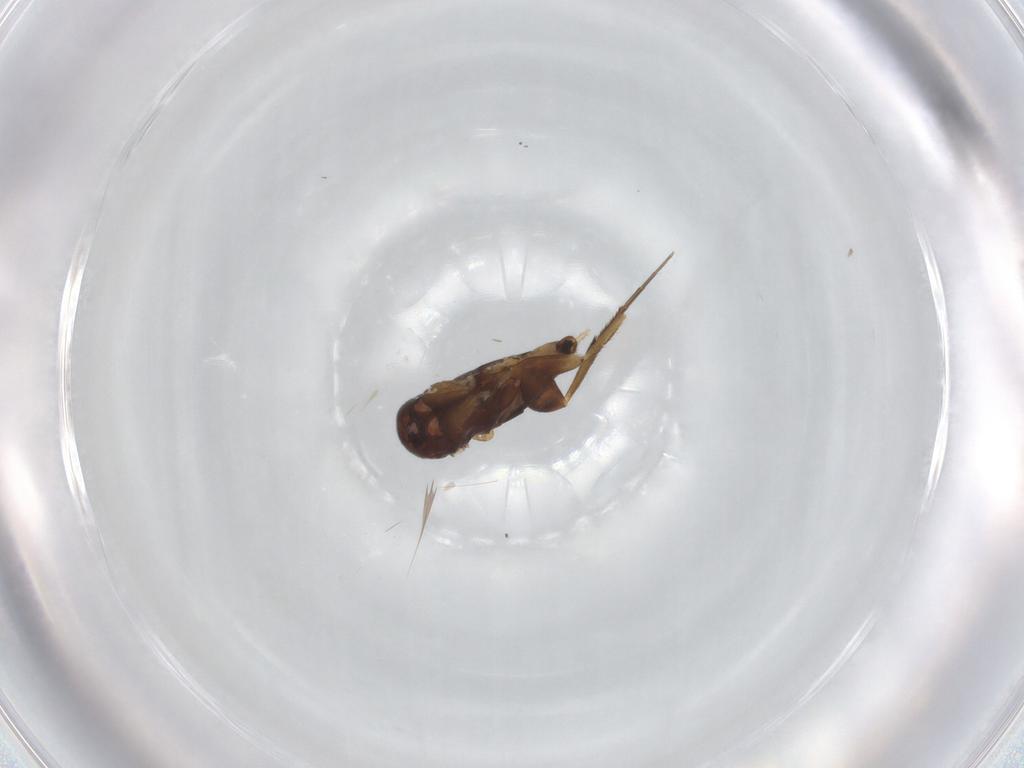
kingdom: Animalia
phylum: Arthropoda
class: Insecta
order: Diptera
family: Phoridae
